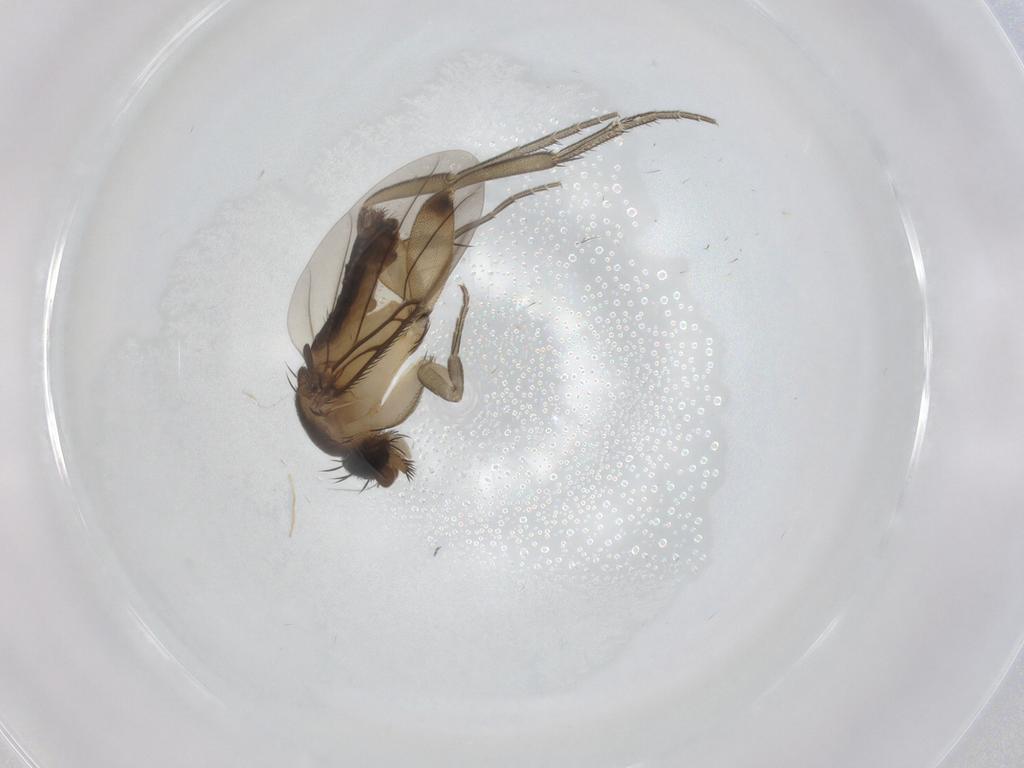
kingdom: Animalia
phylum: Arthropoda
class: Insecta
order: Diptera
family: Phoridae
